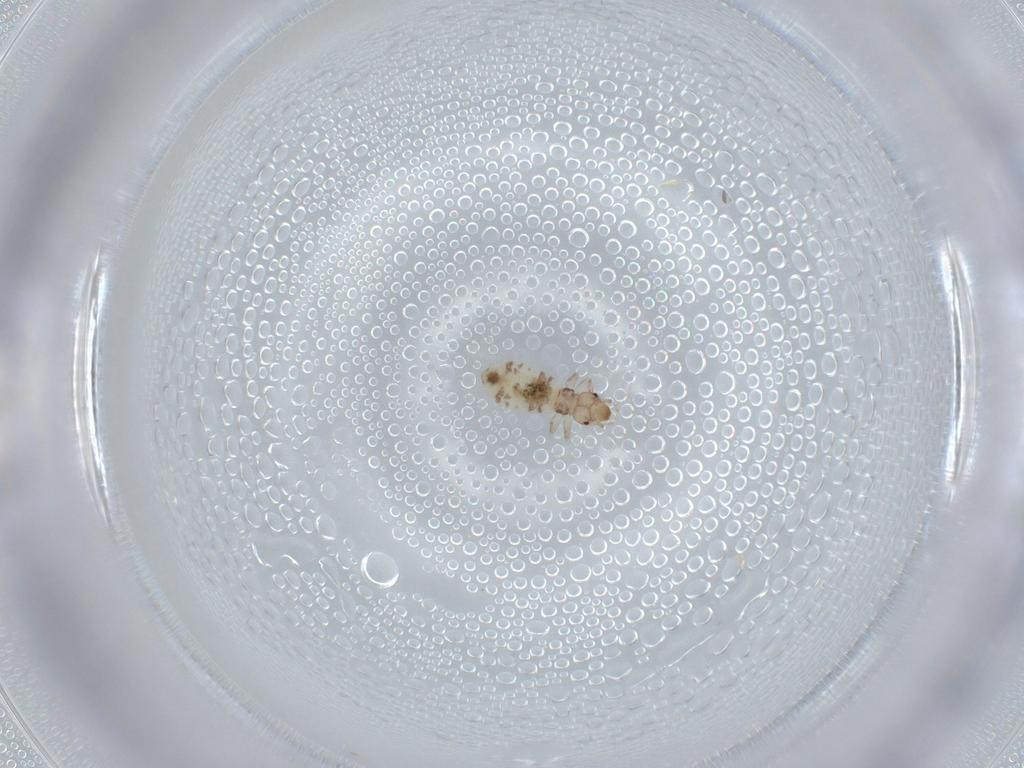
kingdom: Animalia
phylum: Arthropoda
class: Insecta
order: Psocodea
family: Liposcelididae
